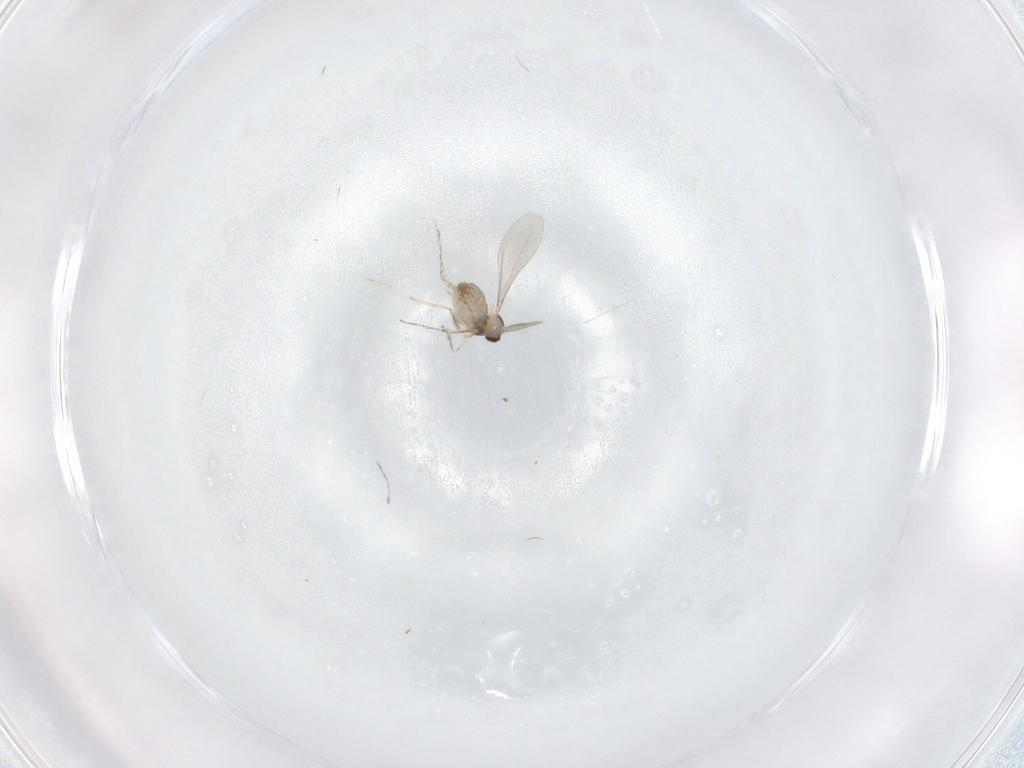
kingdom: Animalia
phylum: Arthropoda
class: Insecta
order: Diptera
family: Cecidomyiidae
